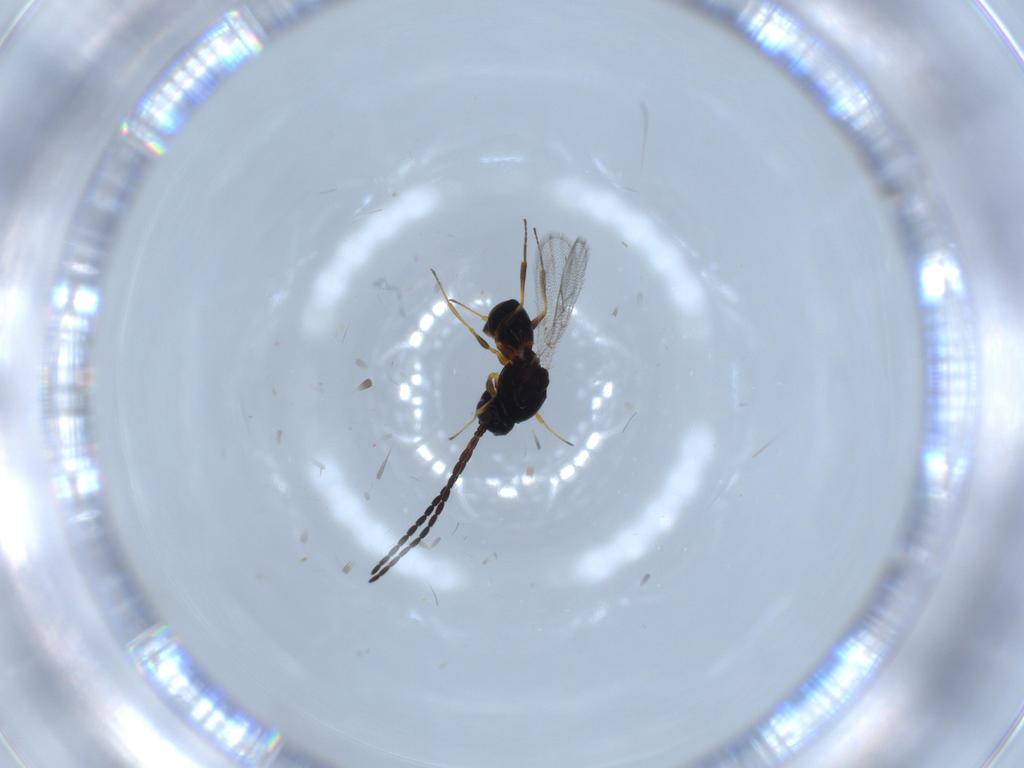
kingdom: Animalia
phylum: Arthropoda
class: Insecta
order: Hymenoptera
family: Figitidae
